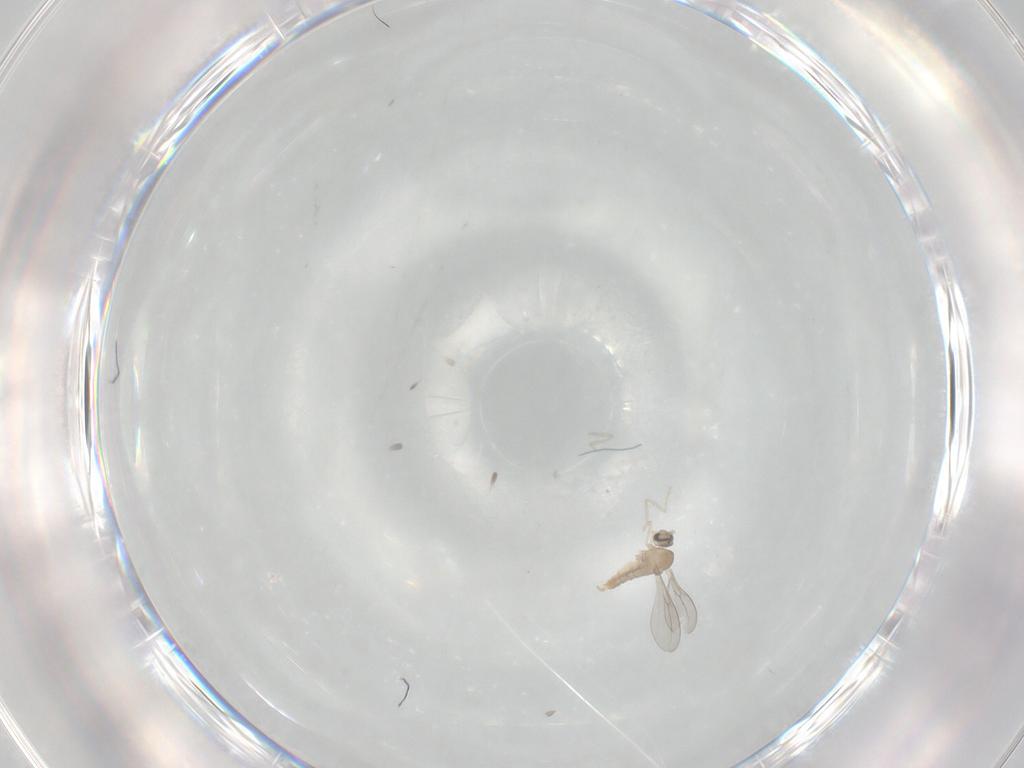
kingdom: Animalia
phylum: Arthropoda
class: Insecta
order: Diptera
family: Cecidomyiidae
